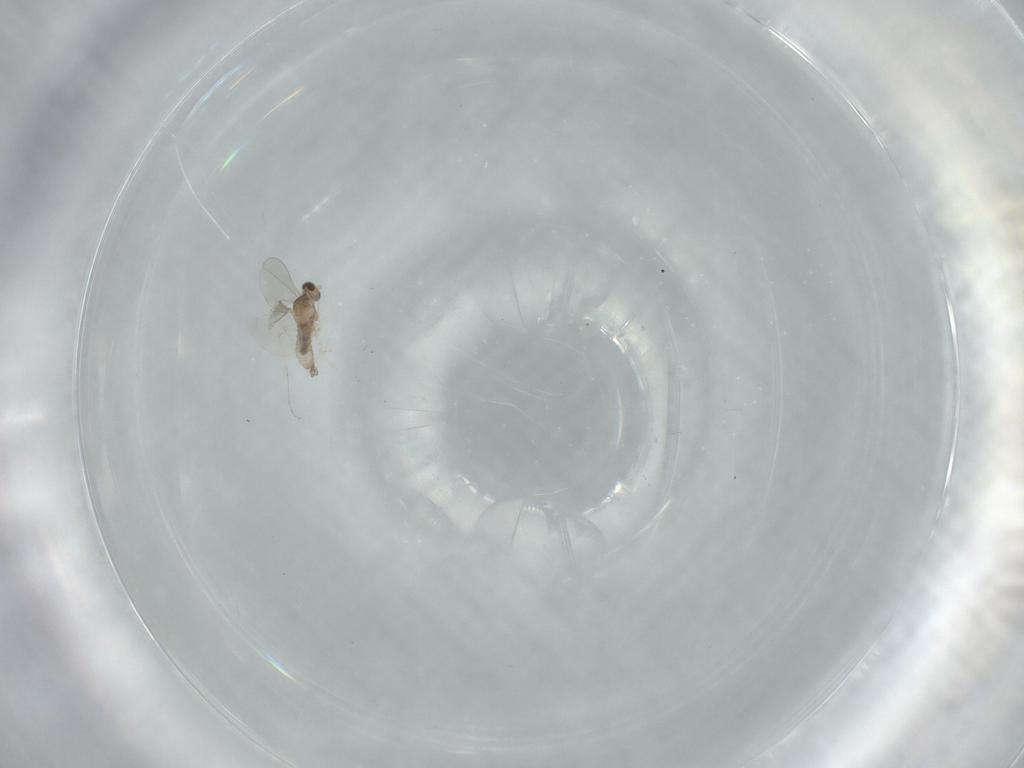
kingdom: Animalia
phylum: Arthropoda
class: Insecta
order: Diptera
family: Cecidomyiidae
